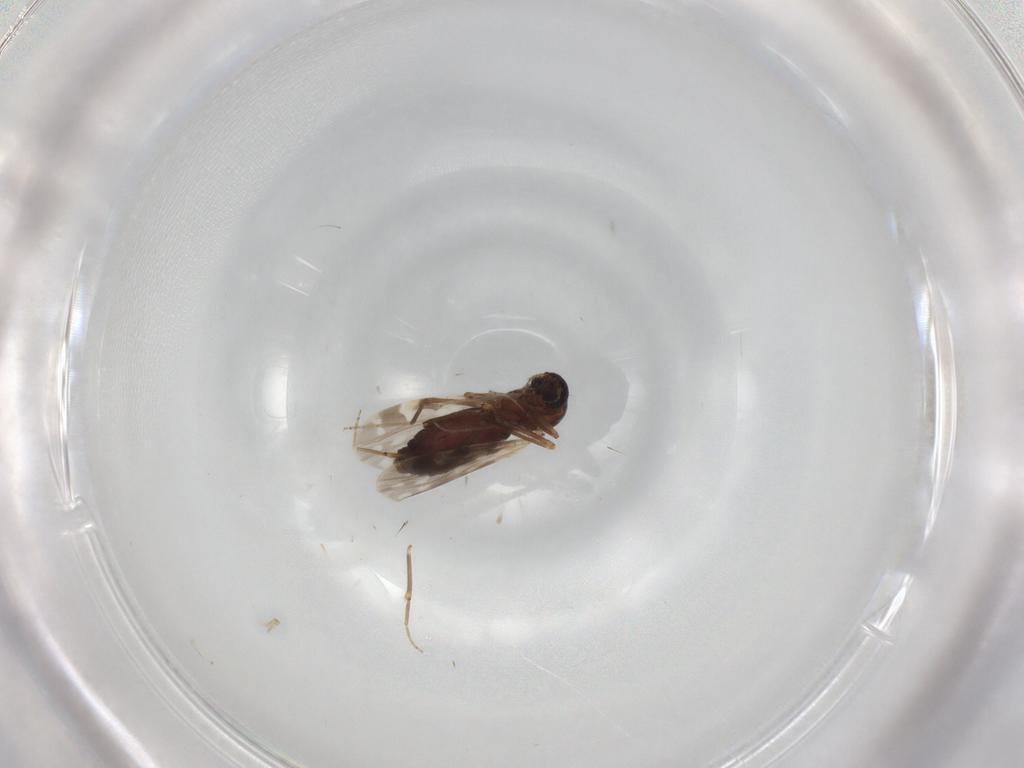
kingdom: Animalia
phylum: Arthropoda
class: Insecta
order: Diptera
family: Ceratopogonidae
